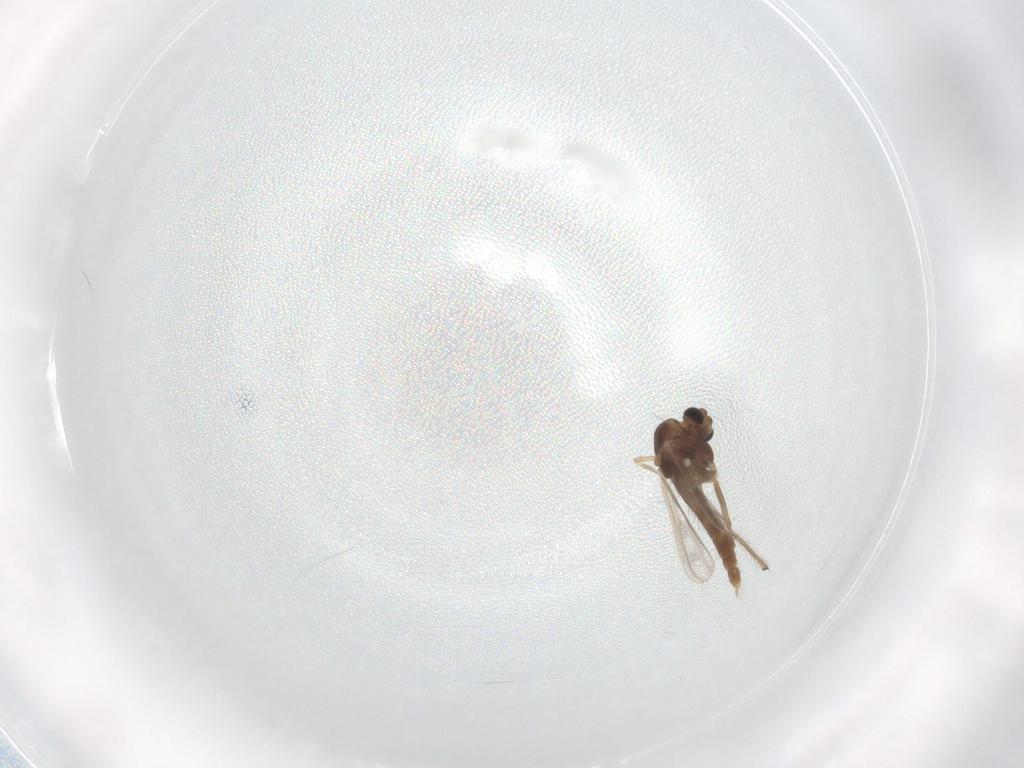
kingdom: Animalia
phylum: Arthropoda
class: Insecta
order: Diptera
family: Chironomidae
